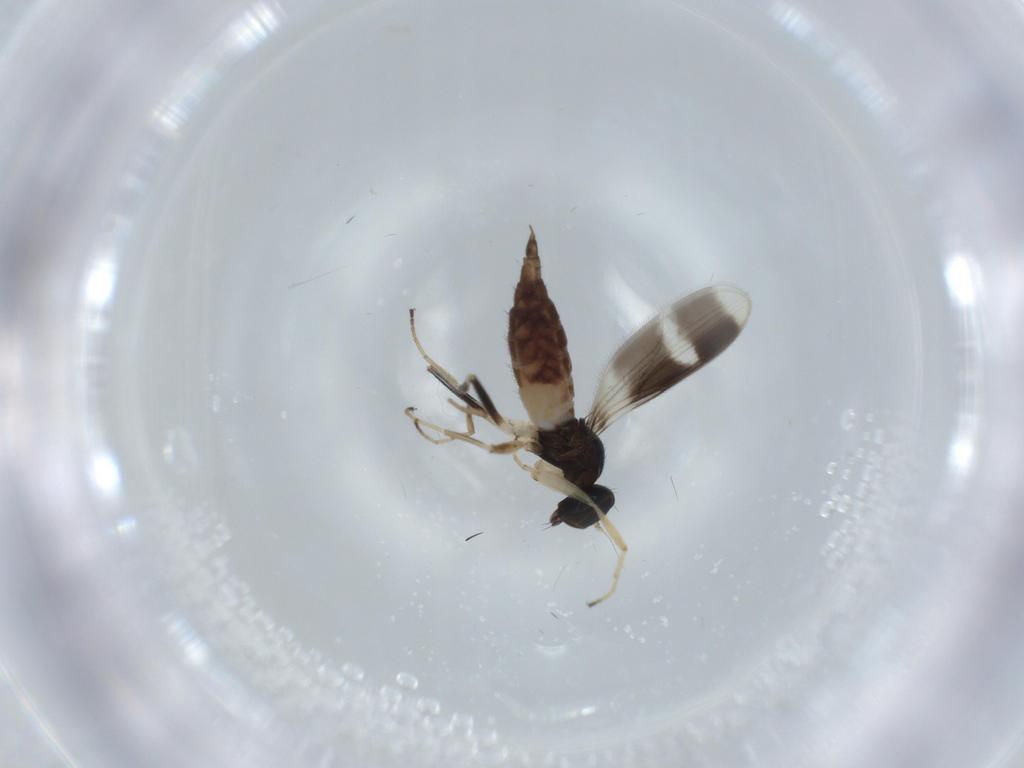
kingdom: Animalia
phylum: Arthropoda
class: Insecta
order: Diptera
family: Hybotidae
